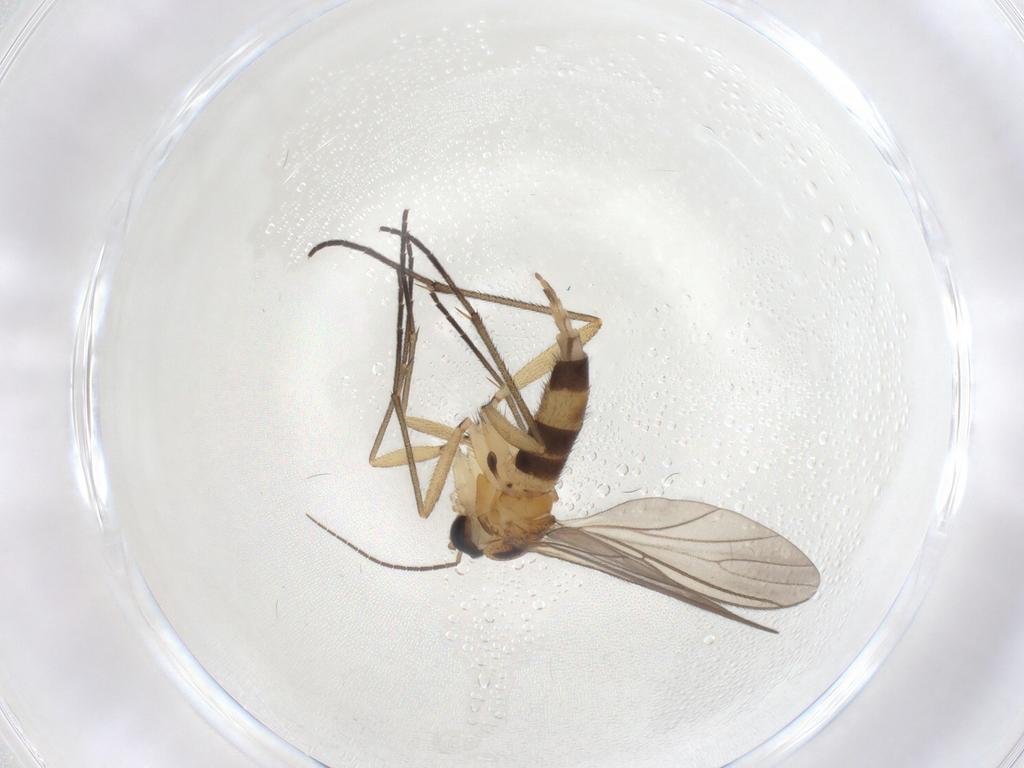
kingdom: Animalia
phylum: Arthropoda
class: Insecta
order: Diptera
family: Sciaridae
